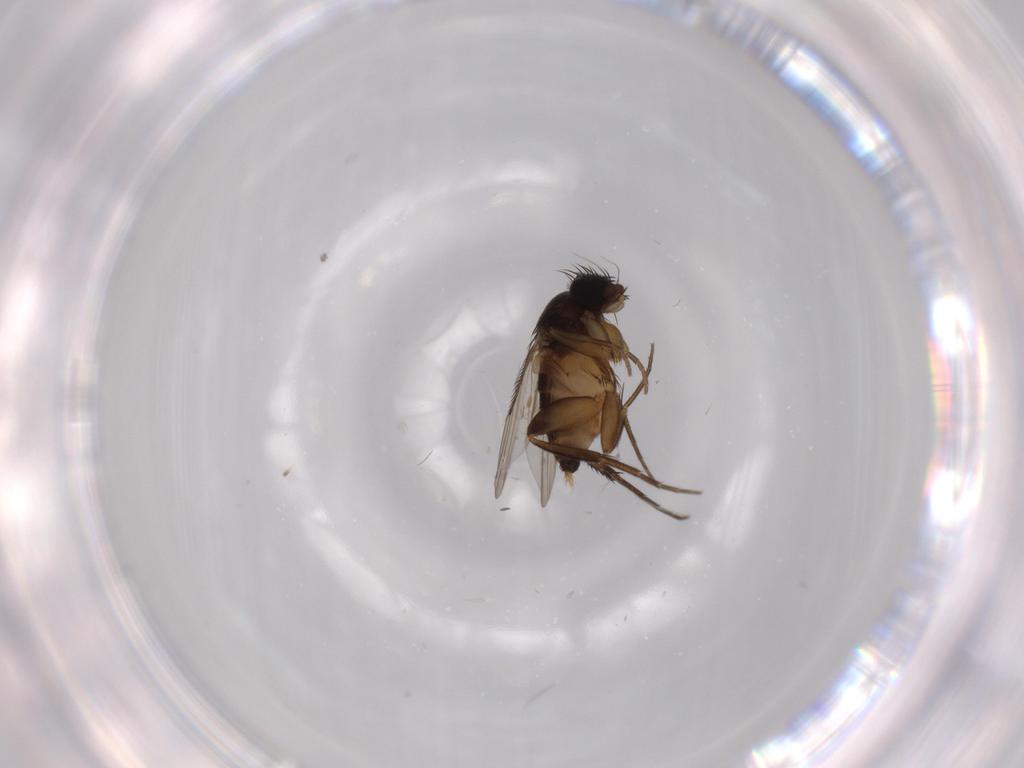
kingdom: Animalia
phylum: Arthropoda
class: Insecta
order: Diptera
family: Phoridae
